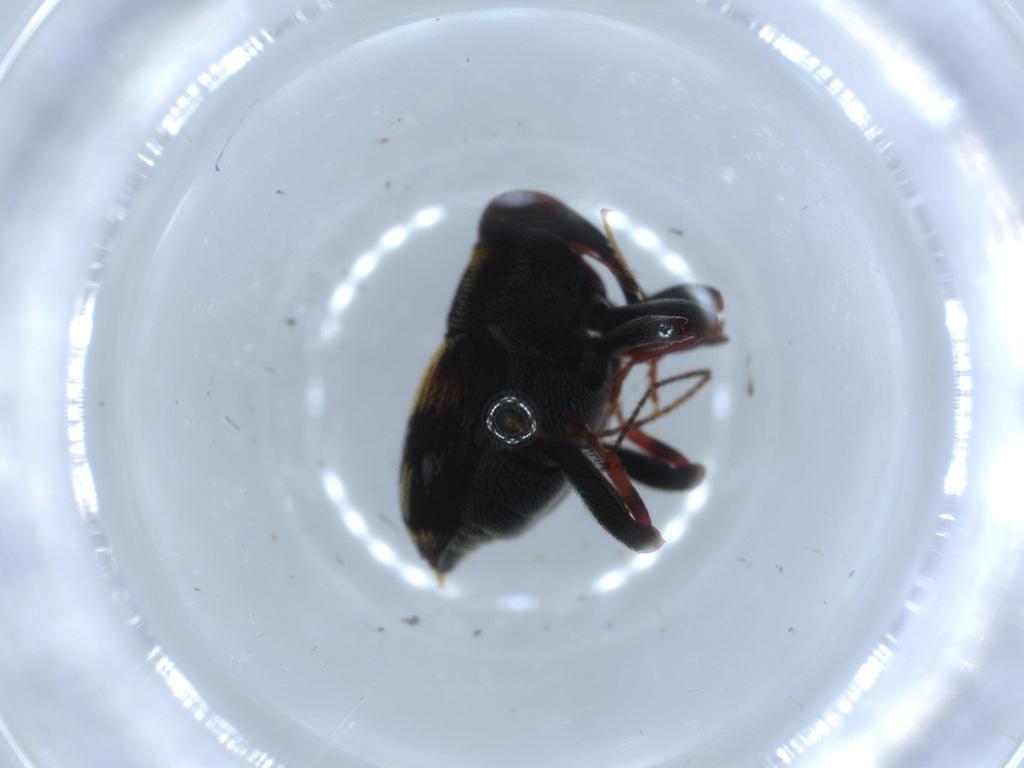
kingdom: Animalia
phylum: Arthropoda
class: Insecta
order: Coleoptera
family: Curculionidae
